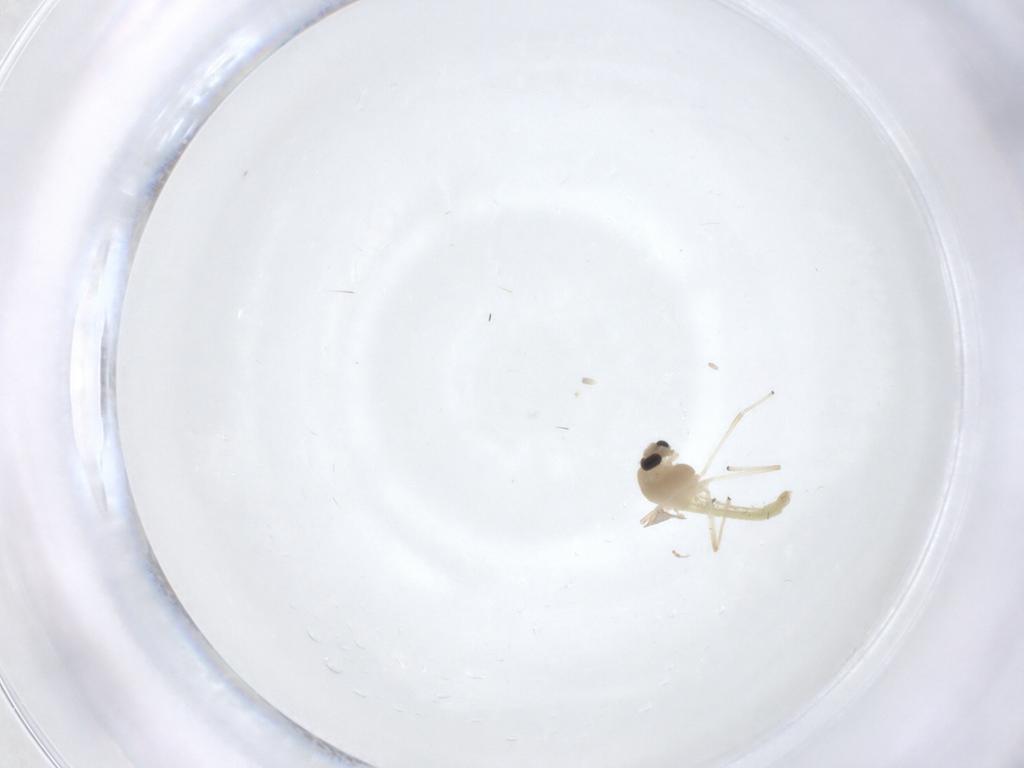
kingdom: Animalia
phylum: Arthropoda
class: Insecta
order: Diptera
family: Chironomidae
